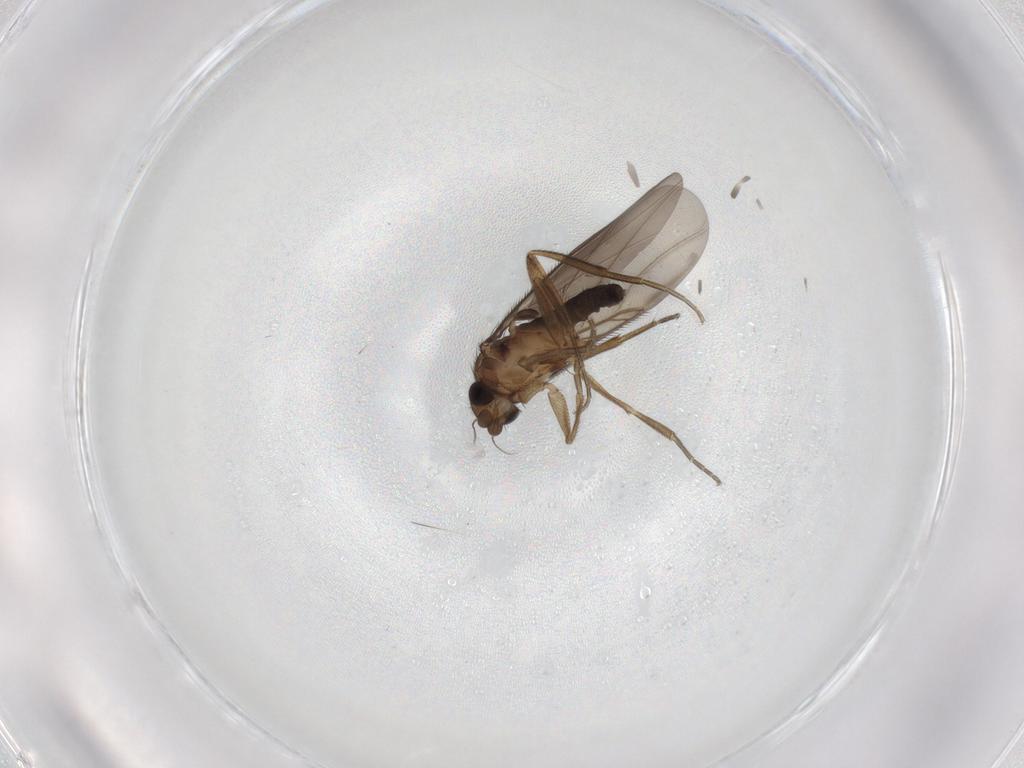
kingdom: Animalia
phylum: Arthropoda
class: Insecta
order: Diptera
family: Phoridae
